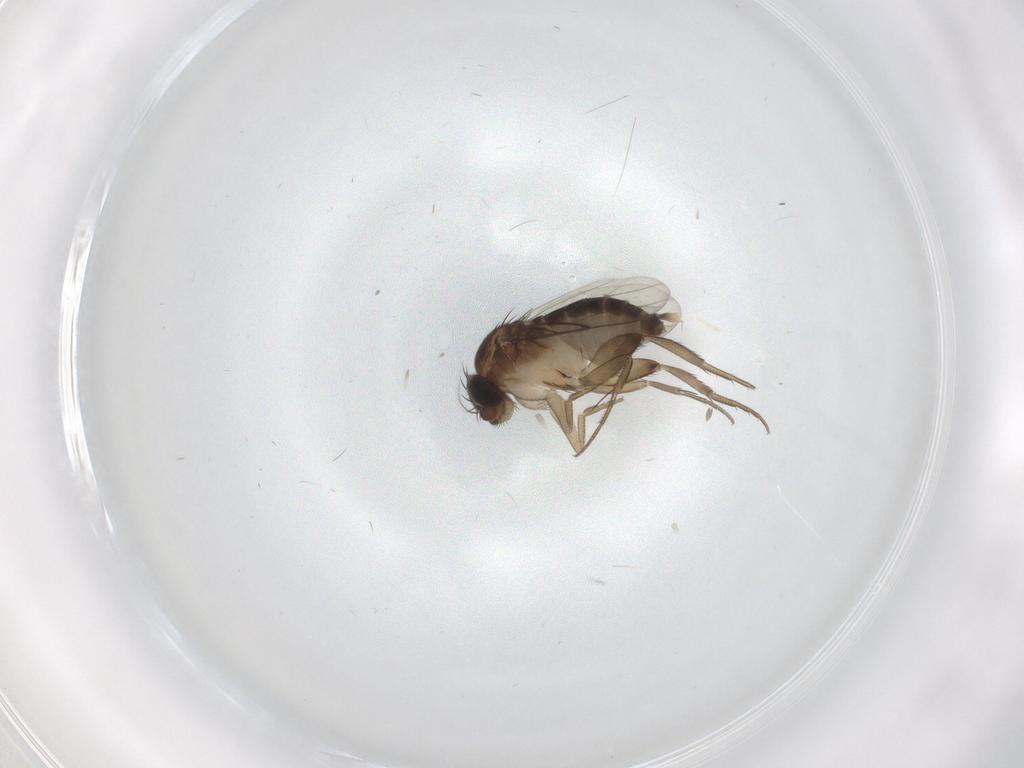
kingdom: Animalia
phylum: Arthropoda
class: Insecta
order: Diptera
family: Phoridae
